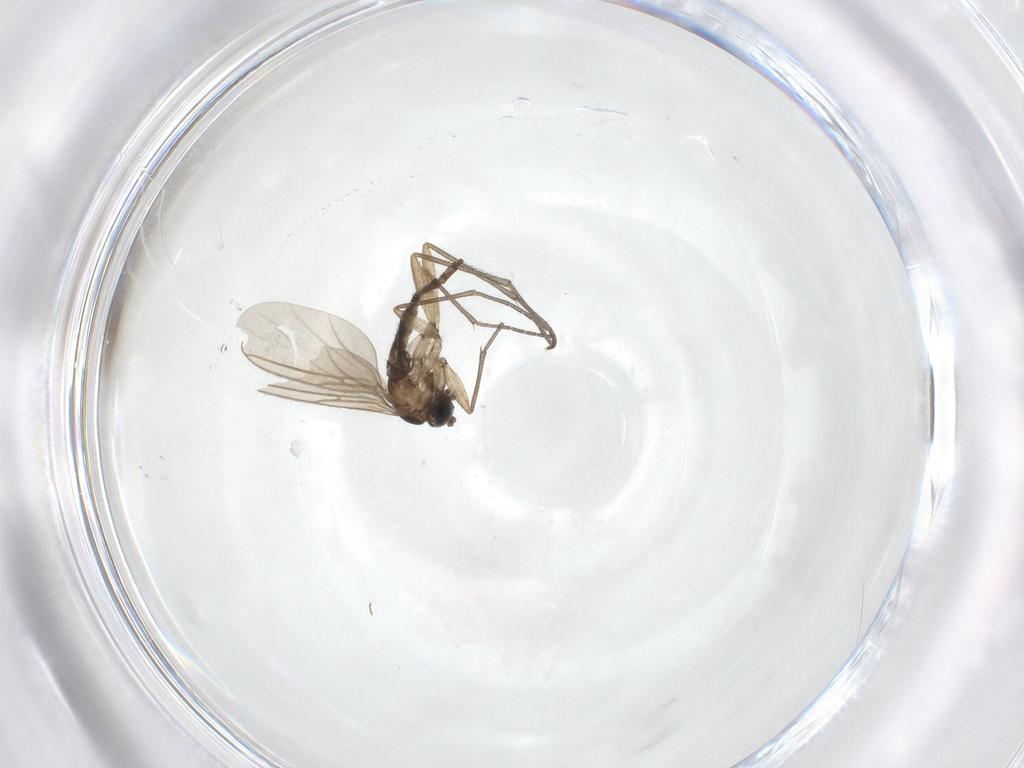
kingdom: Animalia
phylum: Arthropoda
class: Insecta
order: Diptera
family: Sciaridae
